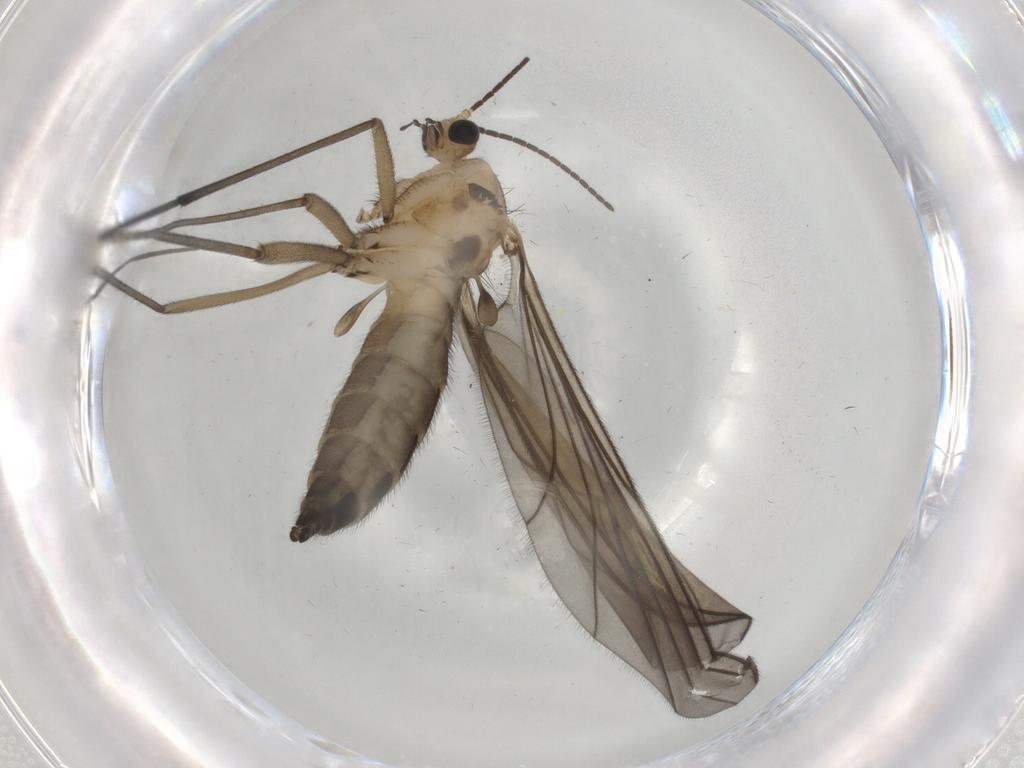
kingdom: Animalia
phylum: Arthropoda
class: Insecta
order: Diptera
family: Sciaridae
